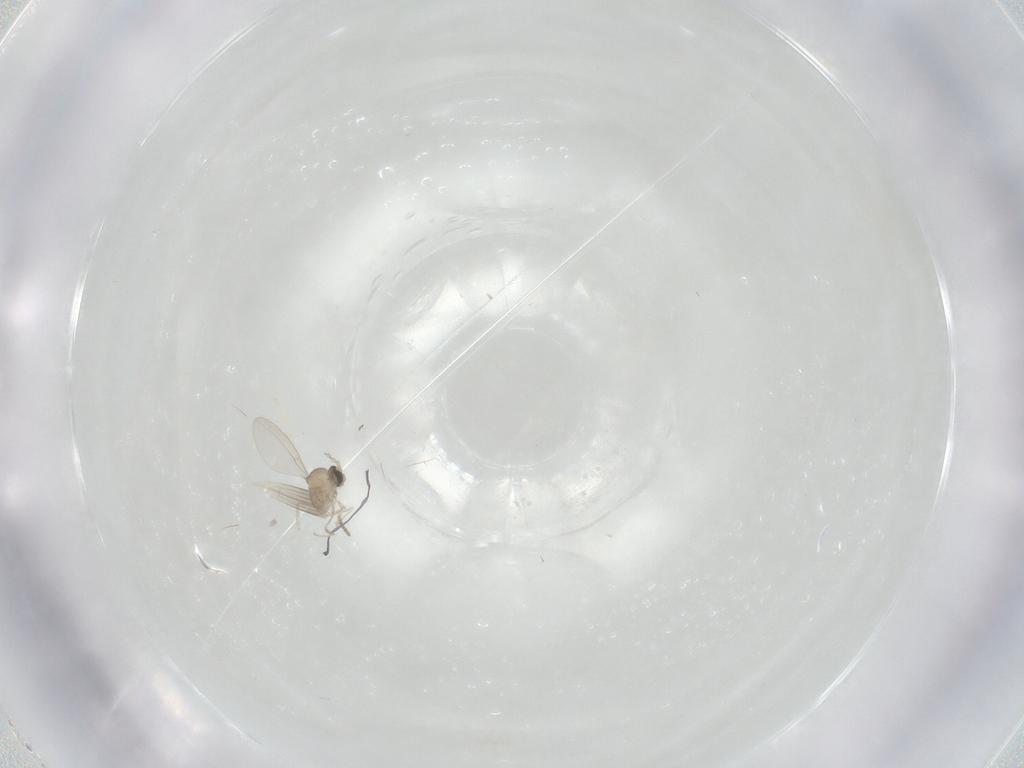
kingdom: Animalia
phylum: Arthropoda
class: Insecta
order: Diptera
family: Cecidomyiidae
